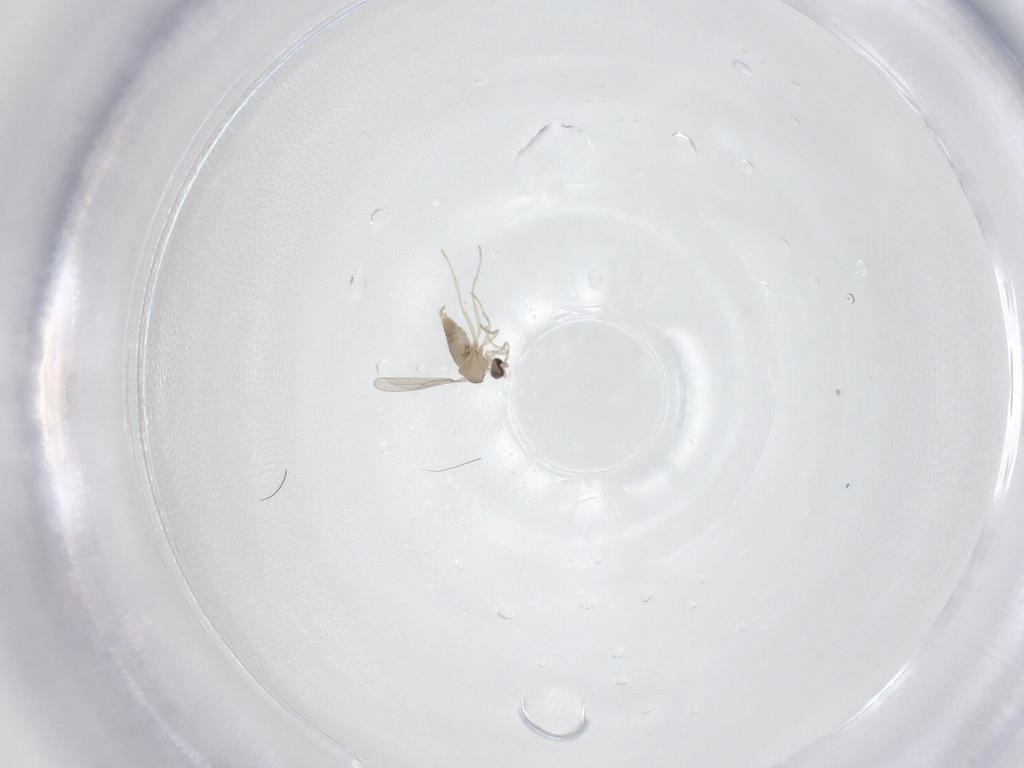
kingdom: Animalia
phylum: Arthropoda
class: Insecta
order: Diptera
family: Cecidomyiidae
